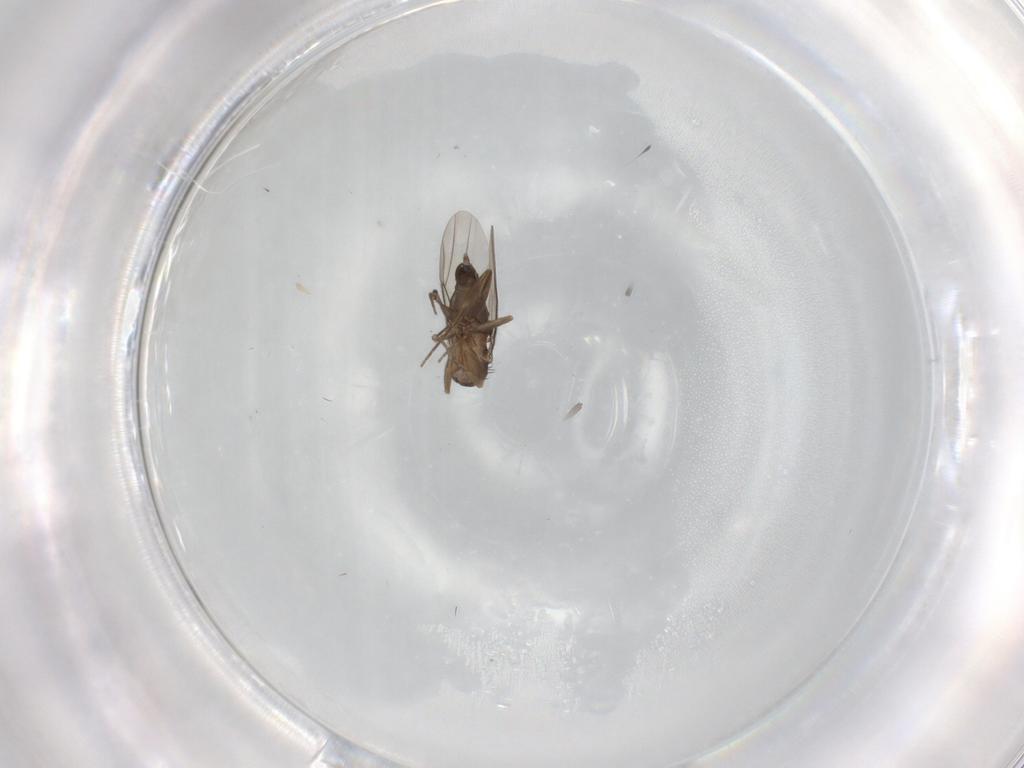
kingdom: Animalia
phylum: Arthropoda
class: Insecta
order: Diptera
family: Phoridae
